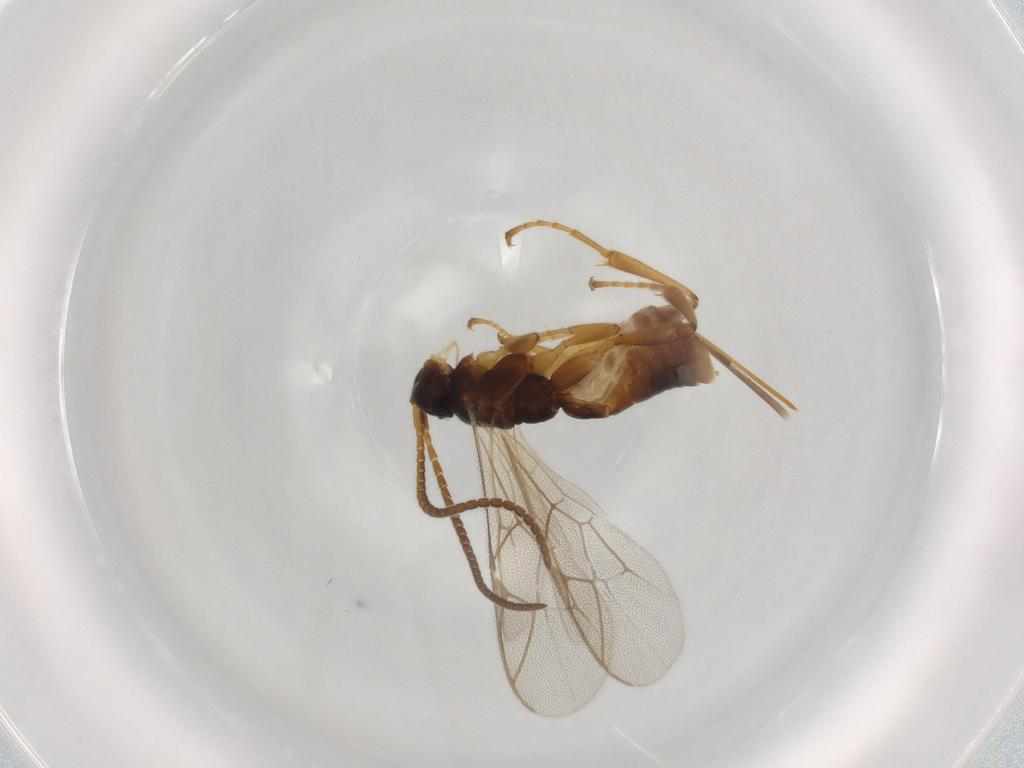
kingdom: Animalia
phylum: Arthropoda
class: Insecta
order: Hymenoptera
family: Ichneumonidae
